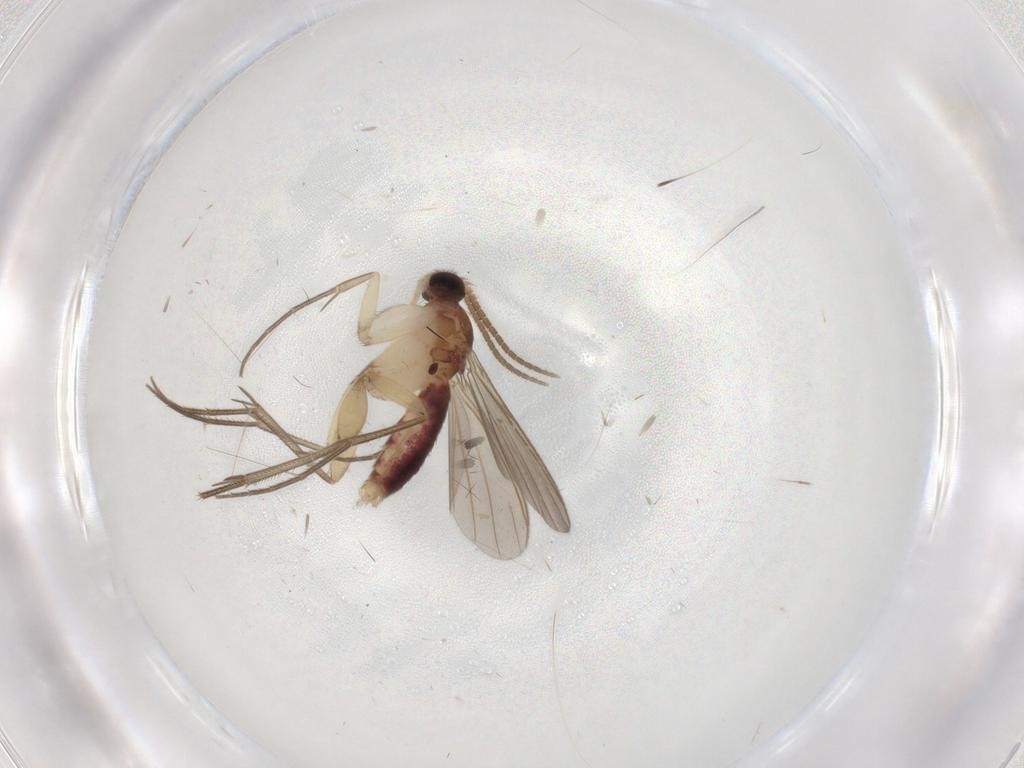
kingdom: Animalia
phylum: Arthropoda
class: Insecta
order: Diptera
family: Mycetophilidae
